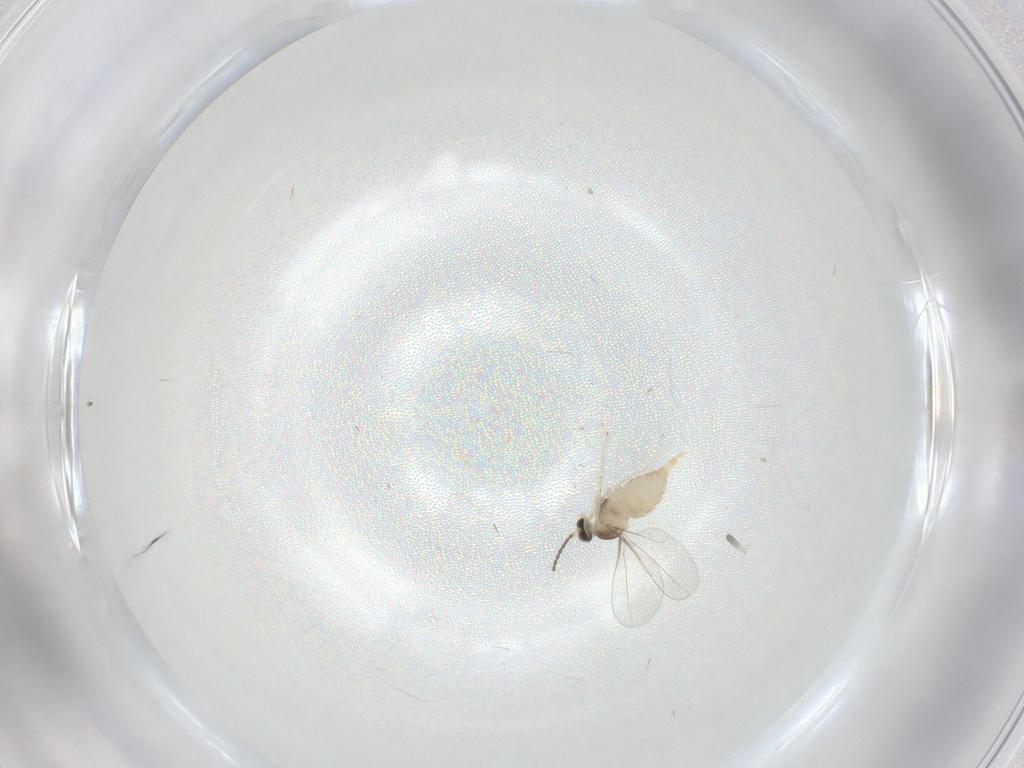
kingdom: Animalia
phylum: Arthropoda
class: Insecta
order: Diptera
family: Cecidomyiidae
